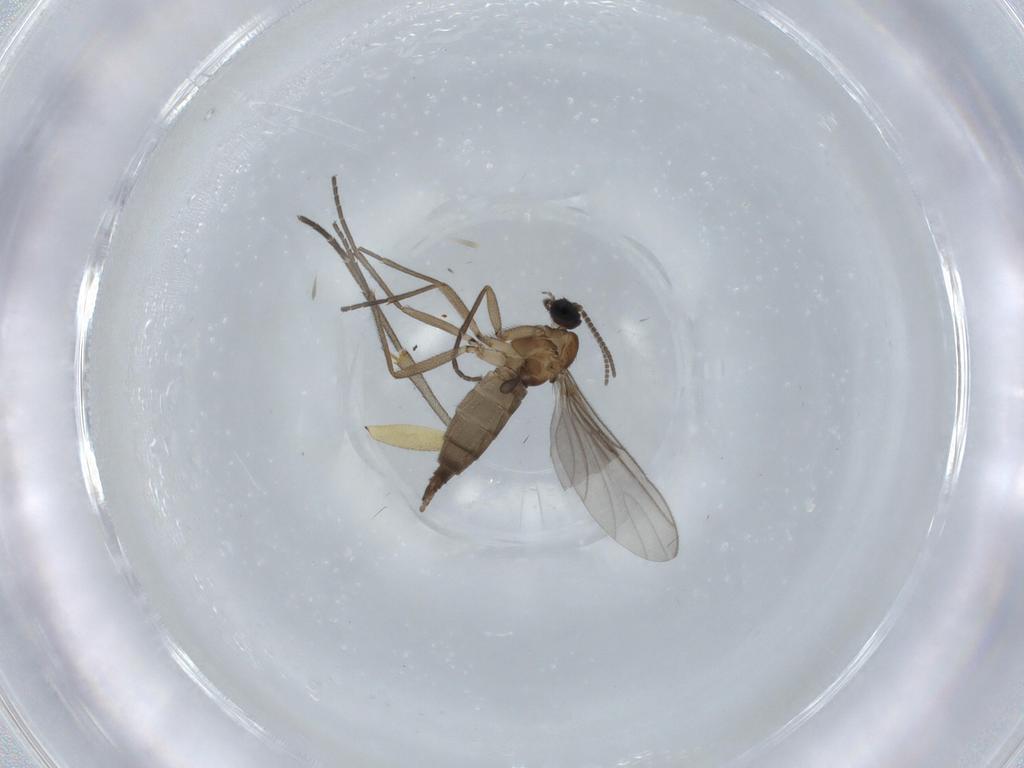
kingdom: Animalia
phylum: Arthropoda
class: Insecta
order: Diptera
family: Sciaridae
